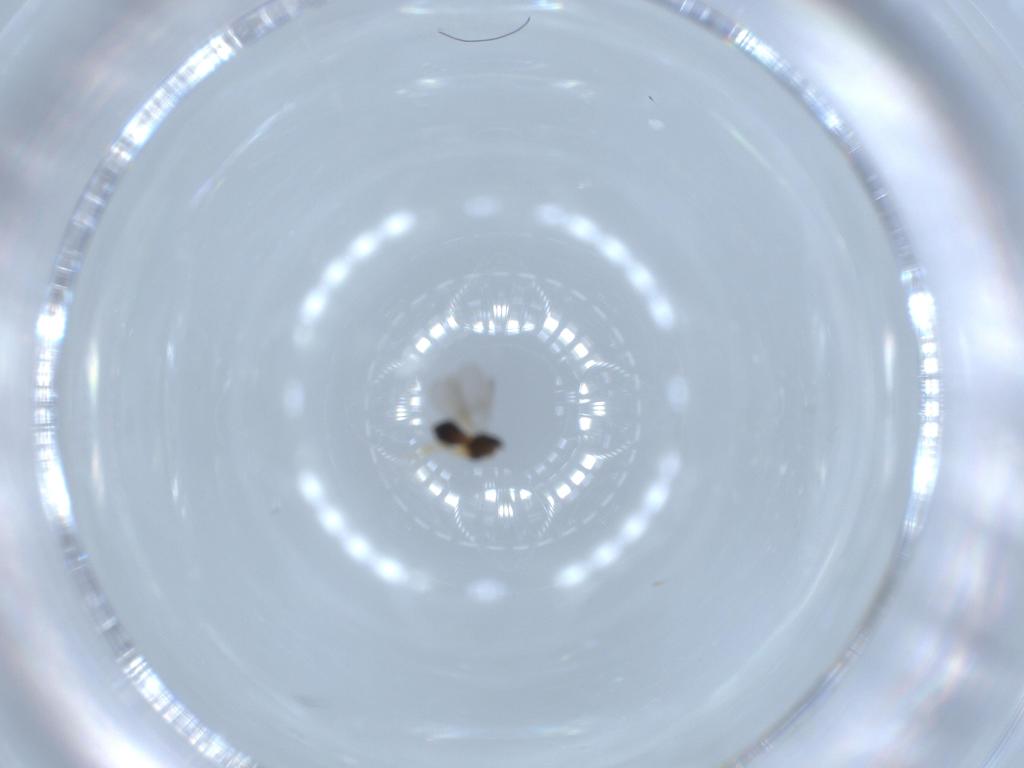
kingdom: Animalia
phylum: Arthropoda
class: Insecta
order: Hymenoptera
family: Scelionidae
